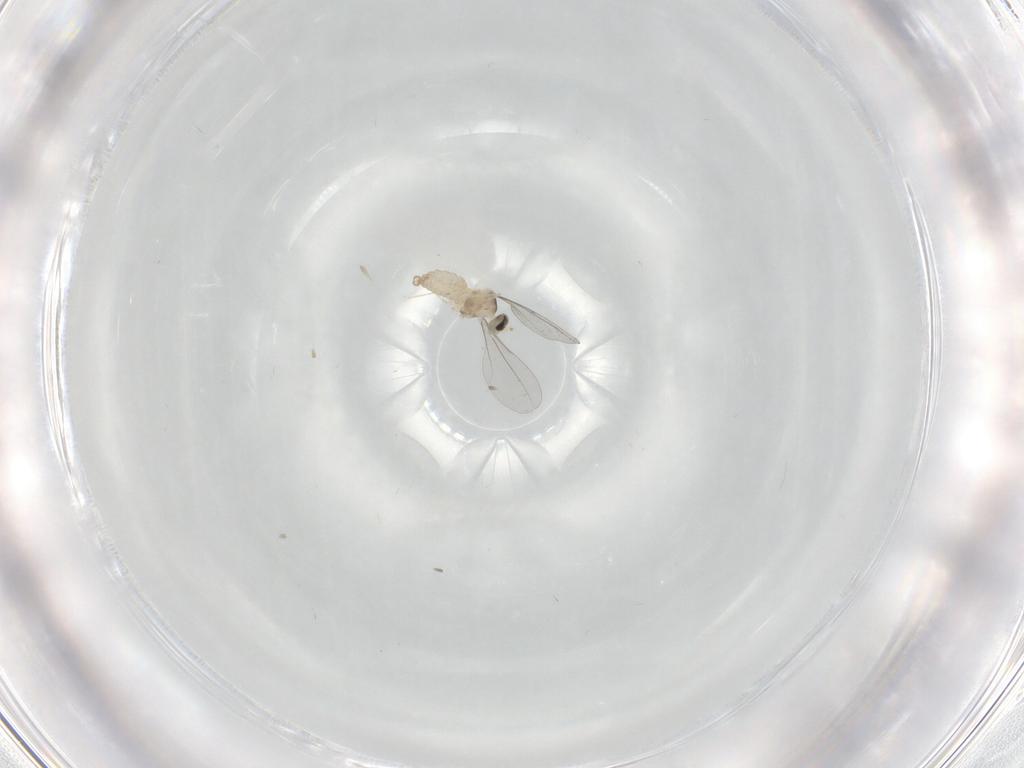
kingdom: Animalia
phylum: Arthropoda
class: Insecta
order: Diptera
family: Cecidomyiidae
